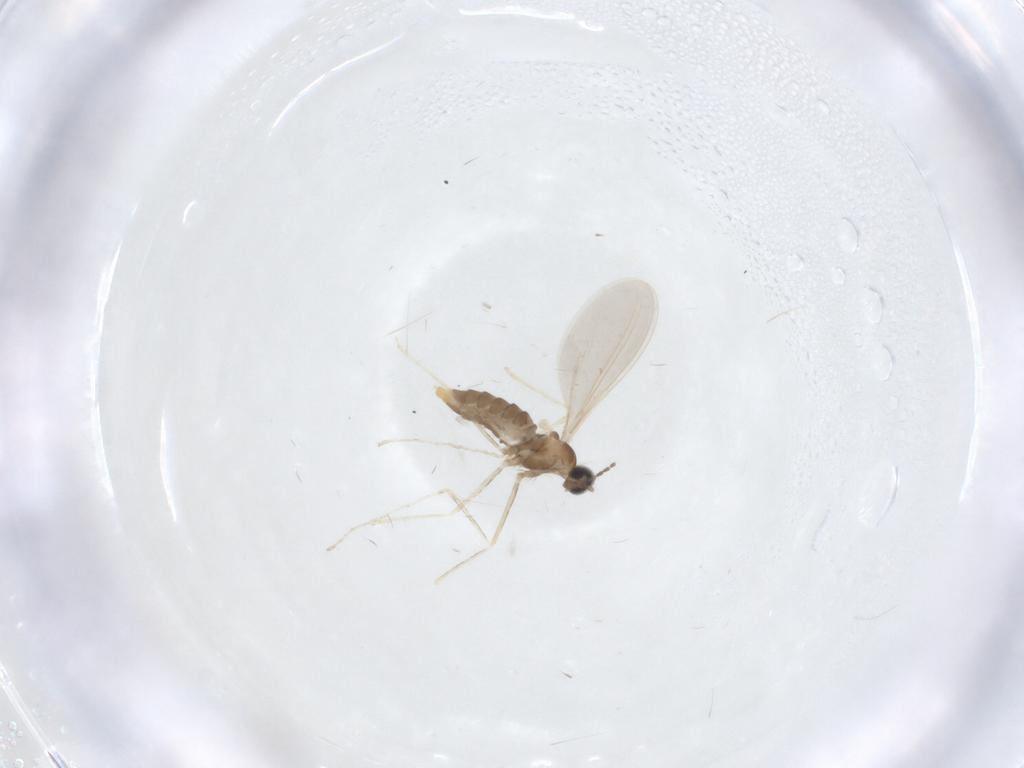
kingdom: Animalia
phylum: Arthropoda
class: Insecta
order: Diptera
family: Cecidomyiidae
